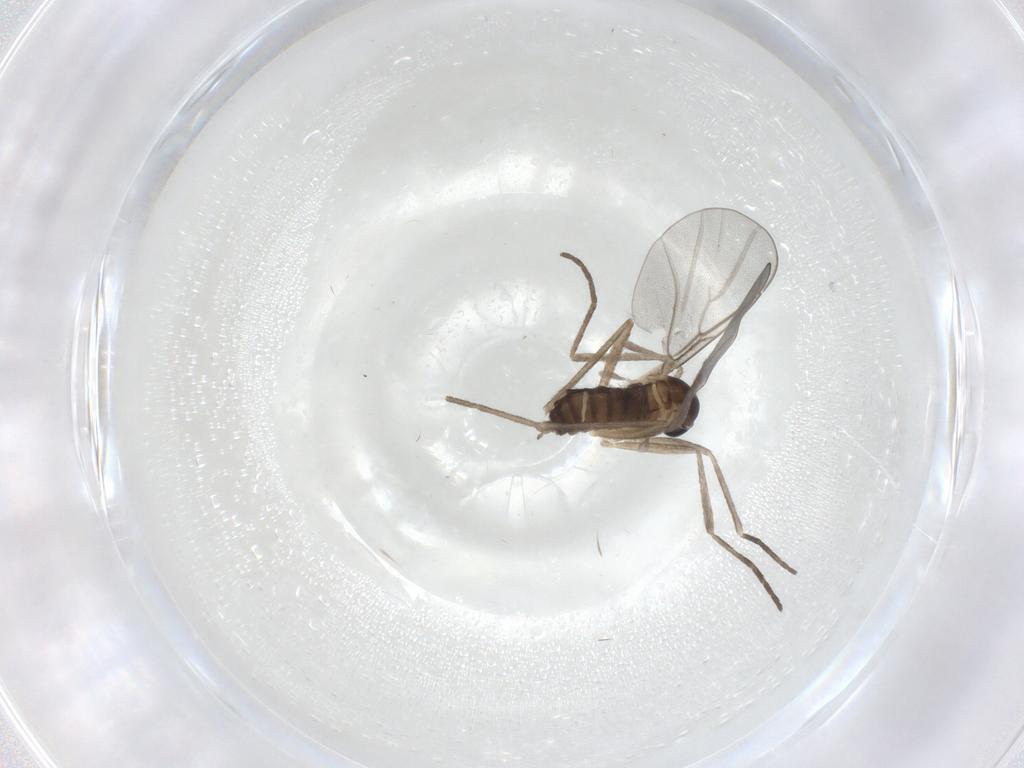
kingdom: Animalia
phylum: Arthropoda
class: Insecta
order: Diptera
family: Cecidomyiidae
